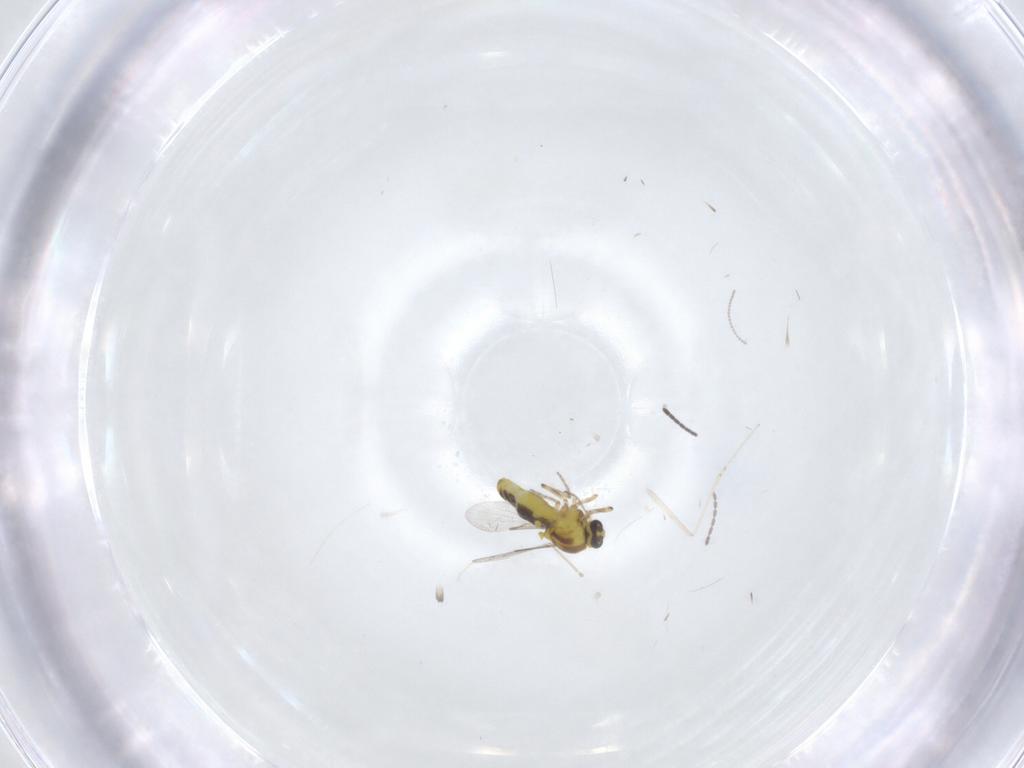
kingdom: Animalia
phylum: Arthropoda
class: Insecta
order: Diptera
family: Ceratopogonidae
